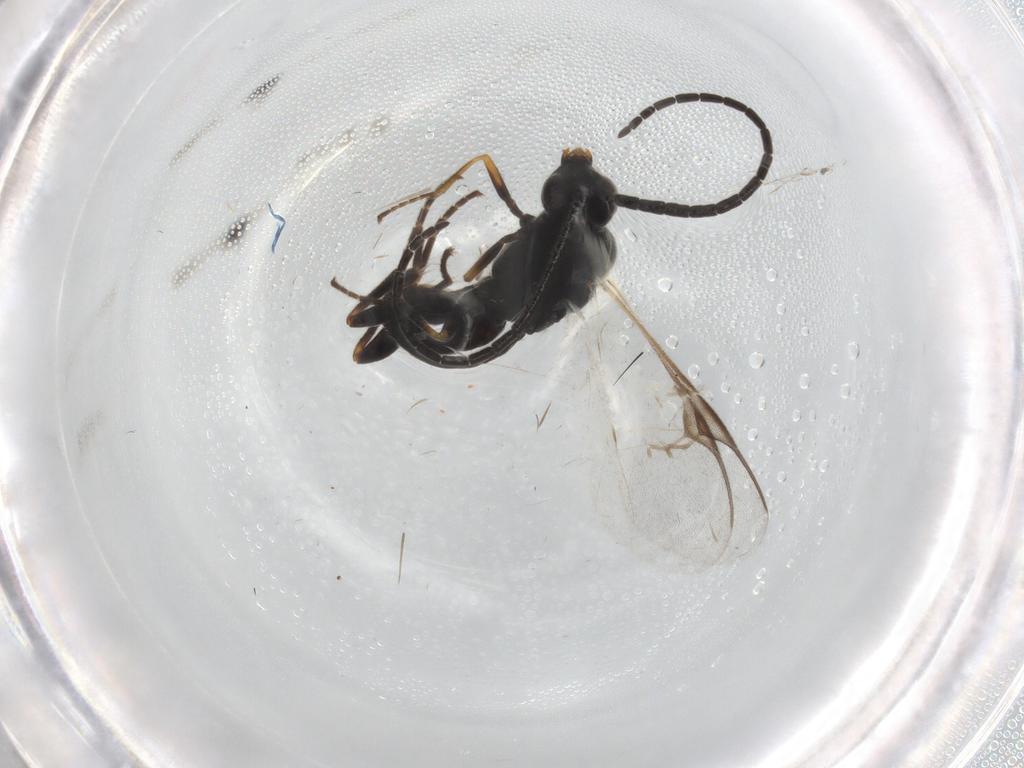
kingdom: Animalia
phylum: Arthropoda
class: Insecta
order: Hymenoptera
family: Braconidae
